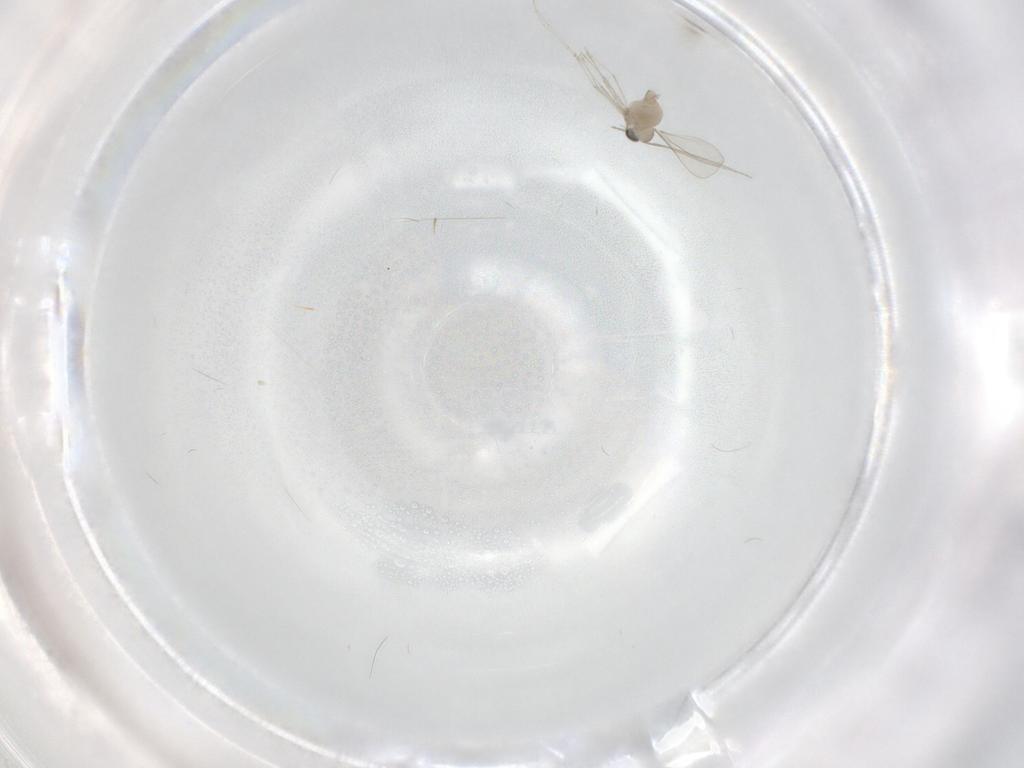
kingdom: Animalia
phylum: Arthropoda
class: Insecta
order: Diptera
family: Cecidomyiidae
